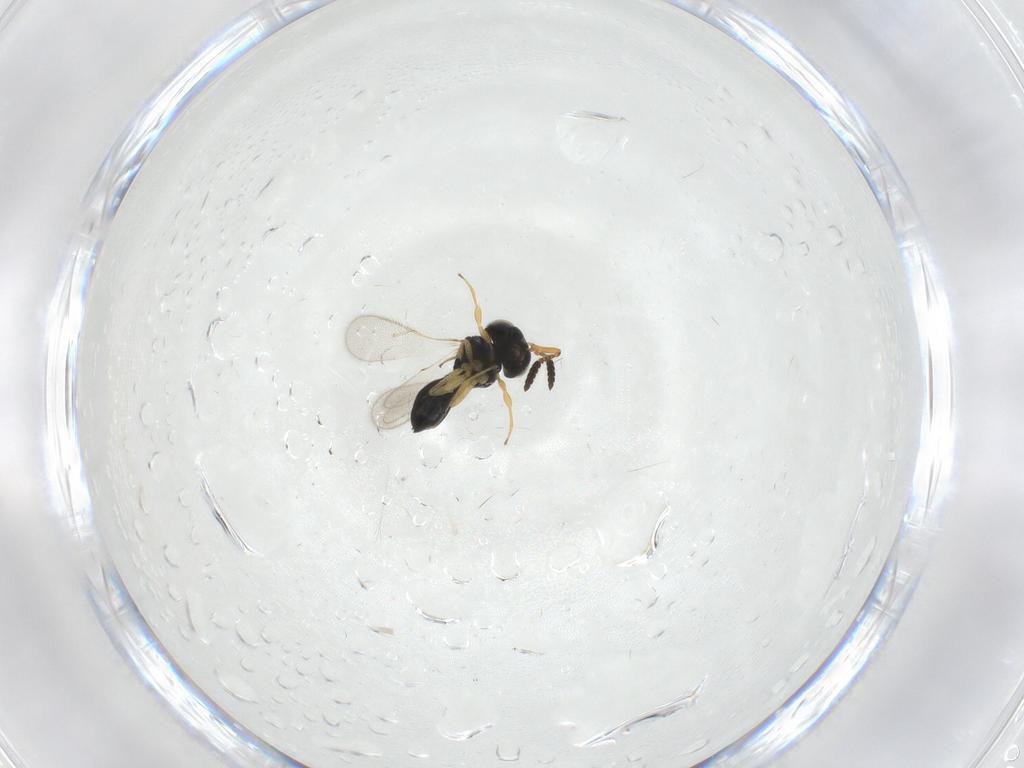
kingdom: Animalia
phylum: Arthropoda
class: Insecta
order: Hymenoptera
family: Scelionidae
